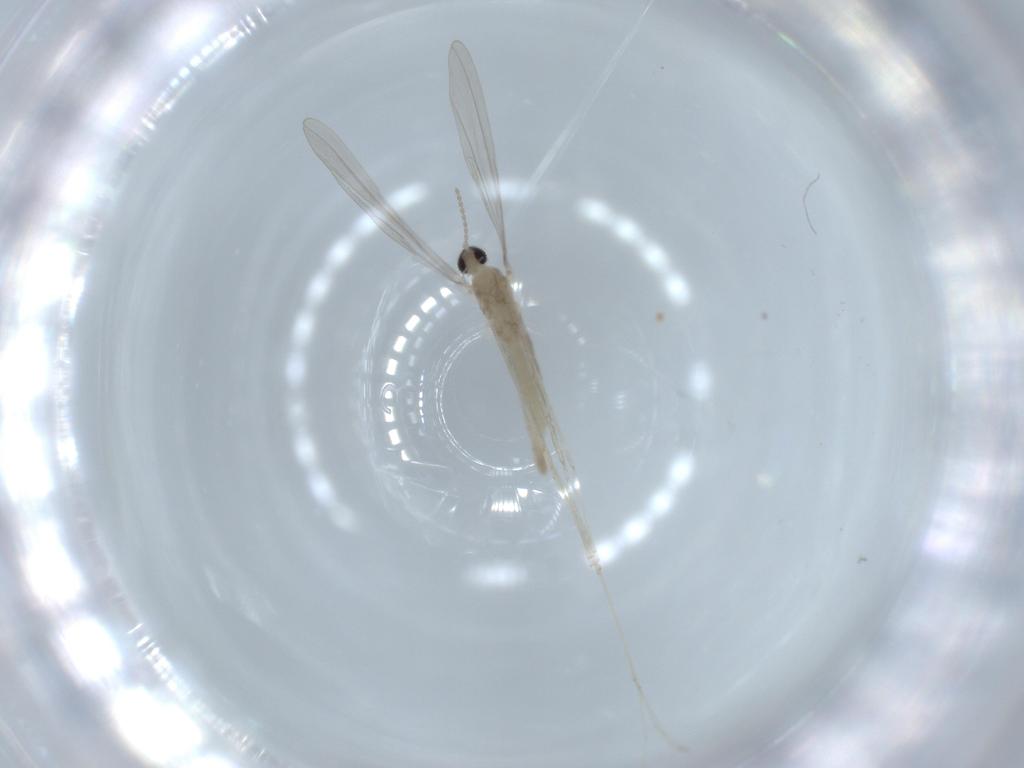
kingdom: Animalia
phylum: Arthropoda
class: Insecta
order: Diptera
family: Cecidomyiidae
